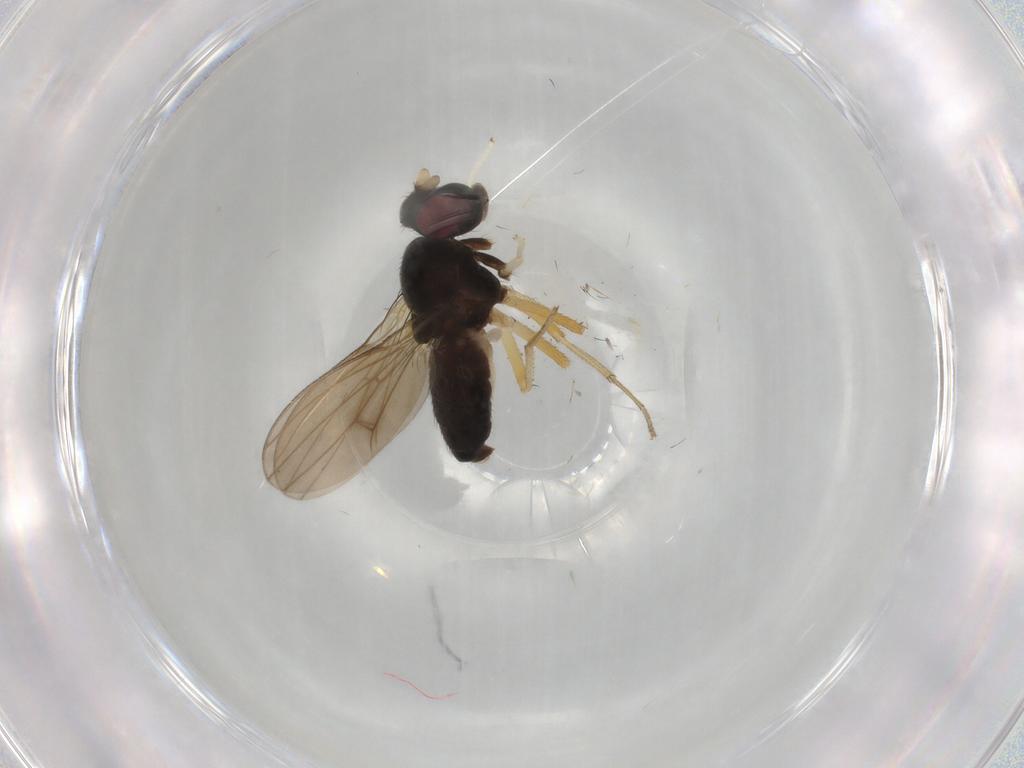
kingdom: Animalia
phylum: Arthropoda
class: Insecta
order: Diptera
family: Lauxaniidae
